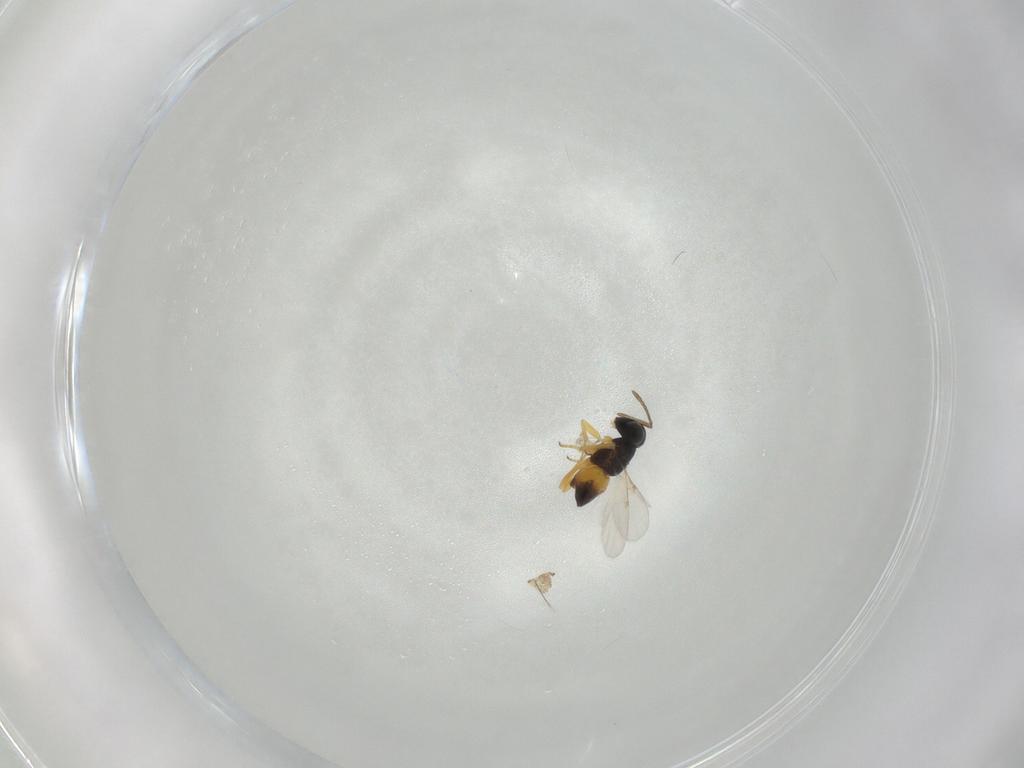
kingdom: Animalia
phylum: Arthropoda
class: Insecta
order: Hymenoptera
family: Encyrtidae
